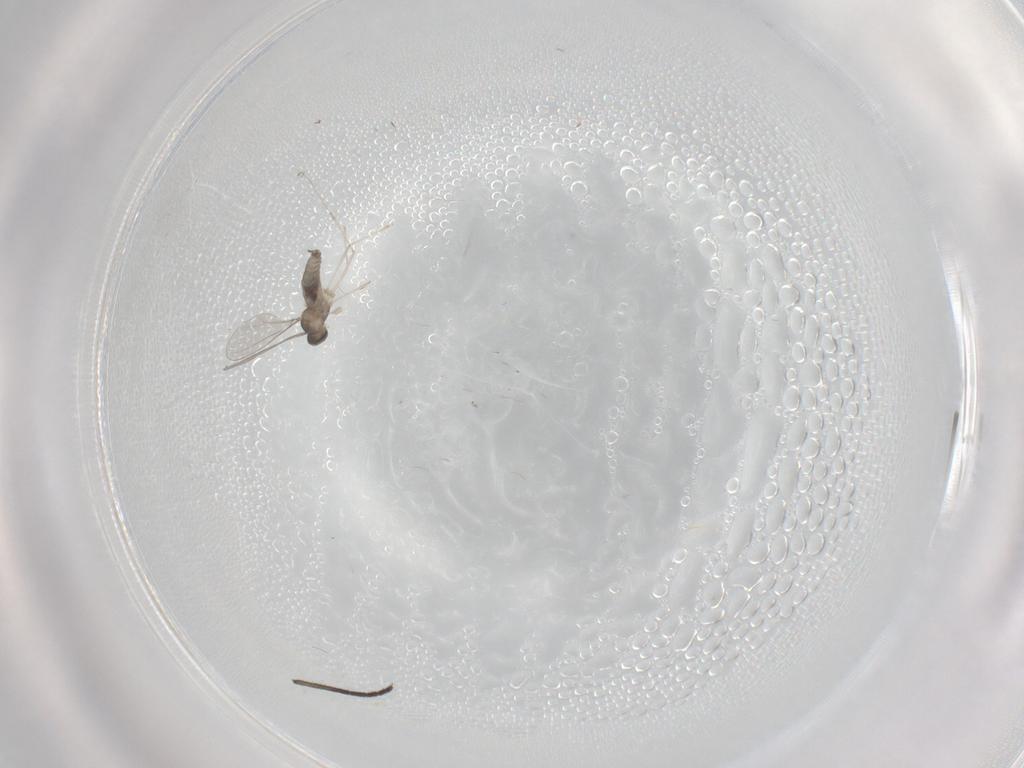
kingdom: Animalia
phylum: Arthropoda
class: Insecta
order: Diptera
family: Sciaridae
